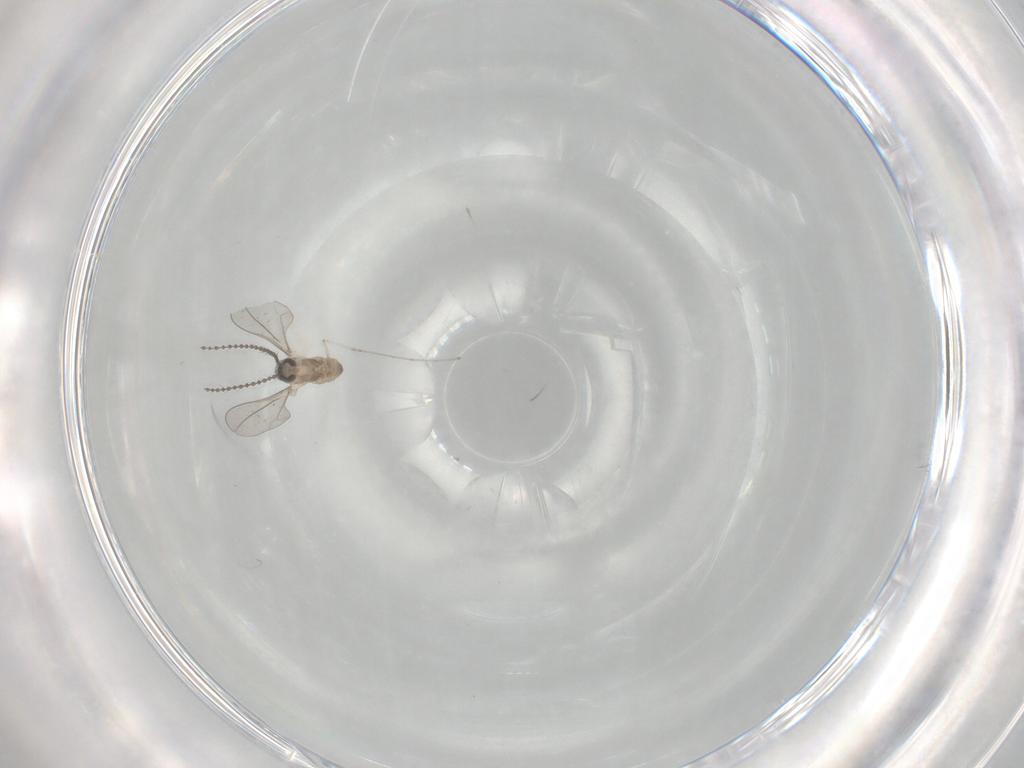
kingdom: Animalia
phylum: Arthropoda
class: Insecta
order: Diptera
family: Cecidomyiidae
